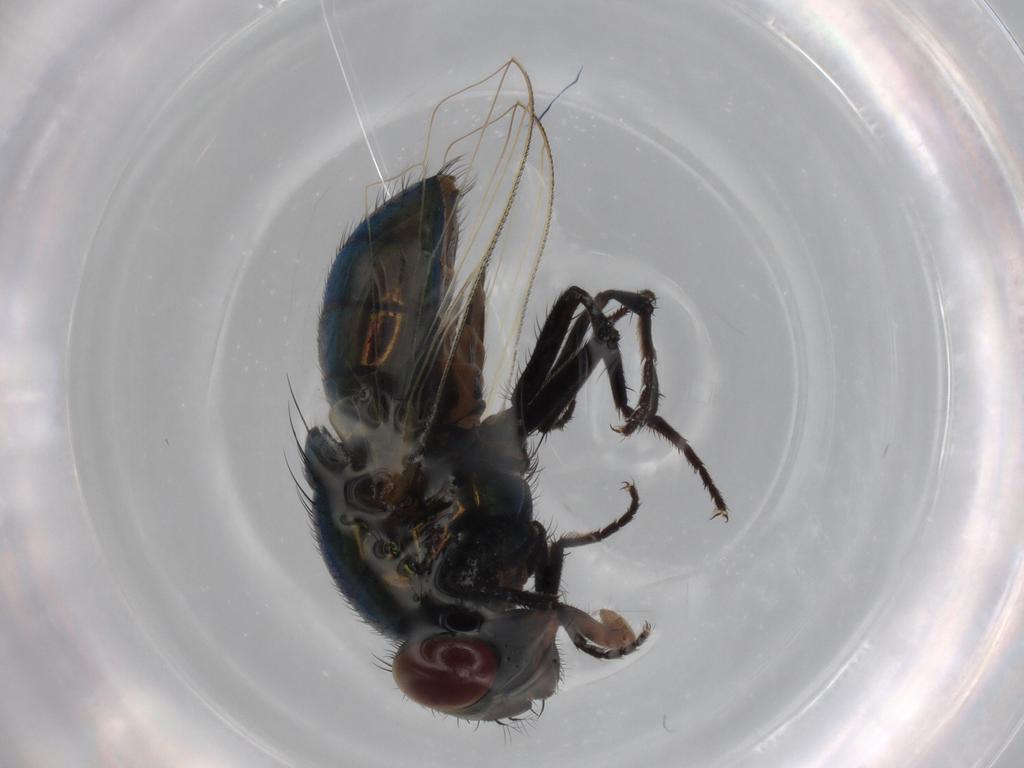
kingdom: Animalia
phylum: Arthropoda
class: Insecta
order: Diptera
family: Muscidae
